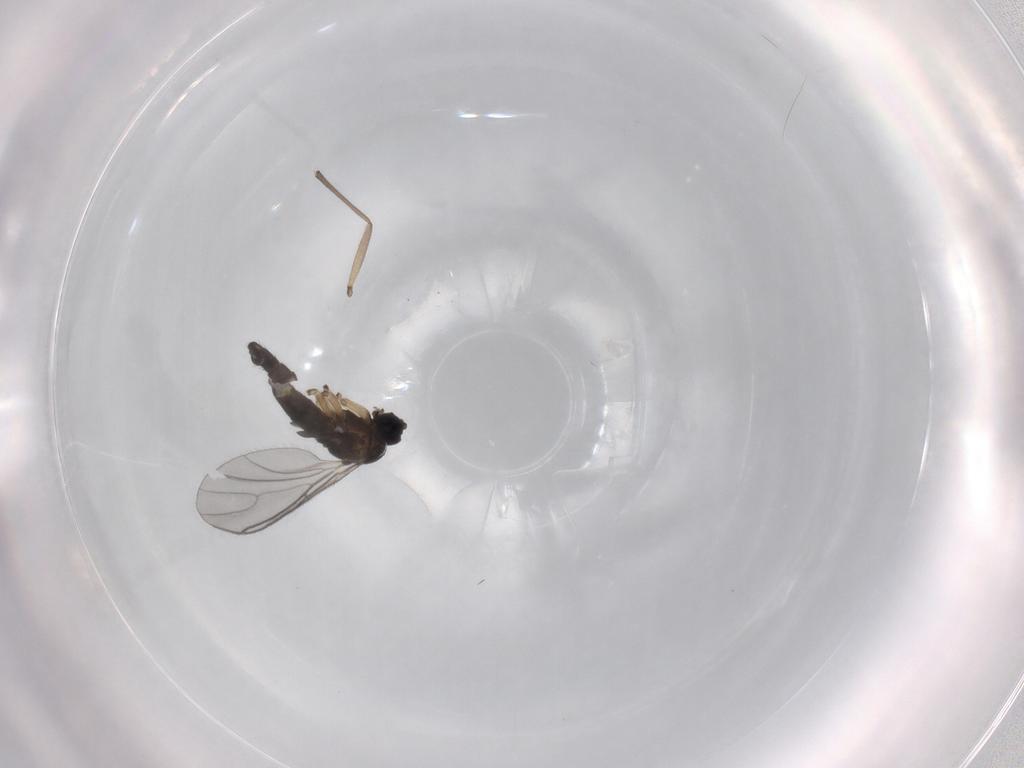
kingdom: Animalia
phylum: Arthropoda
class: Insecta
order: Diptera
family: Sciaridae
